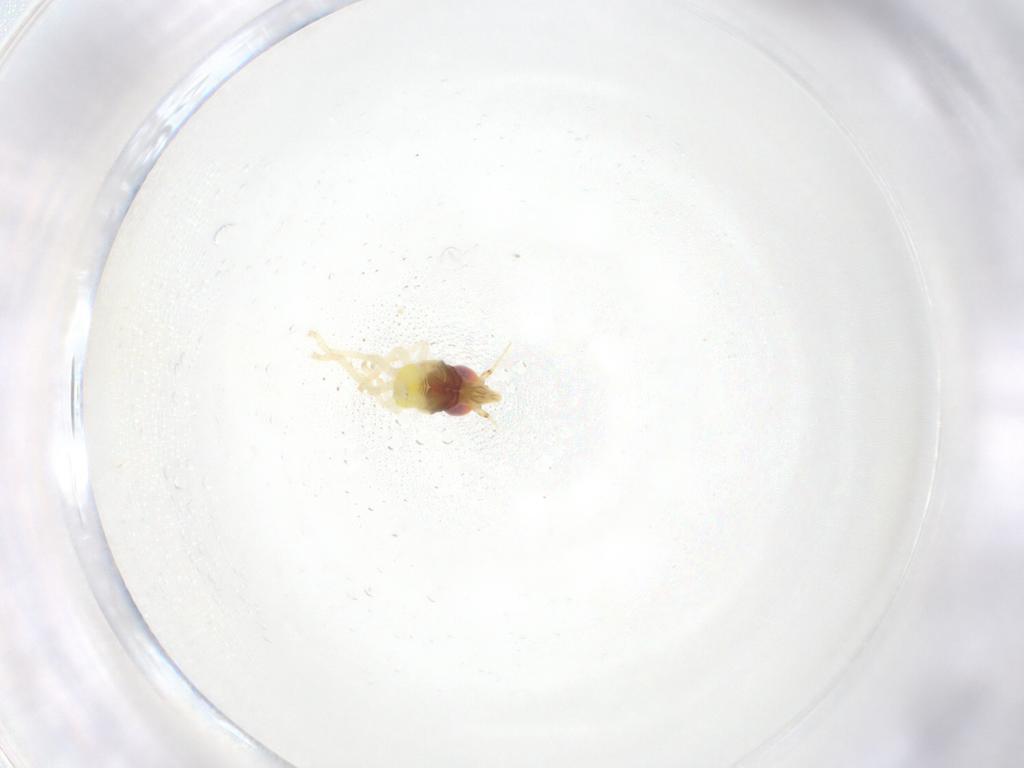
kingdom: Animalia
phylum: Arthropoda
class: Insecta
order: Hemiptera
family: Cicadellidae
